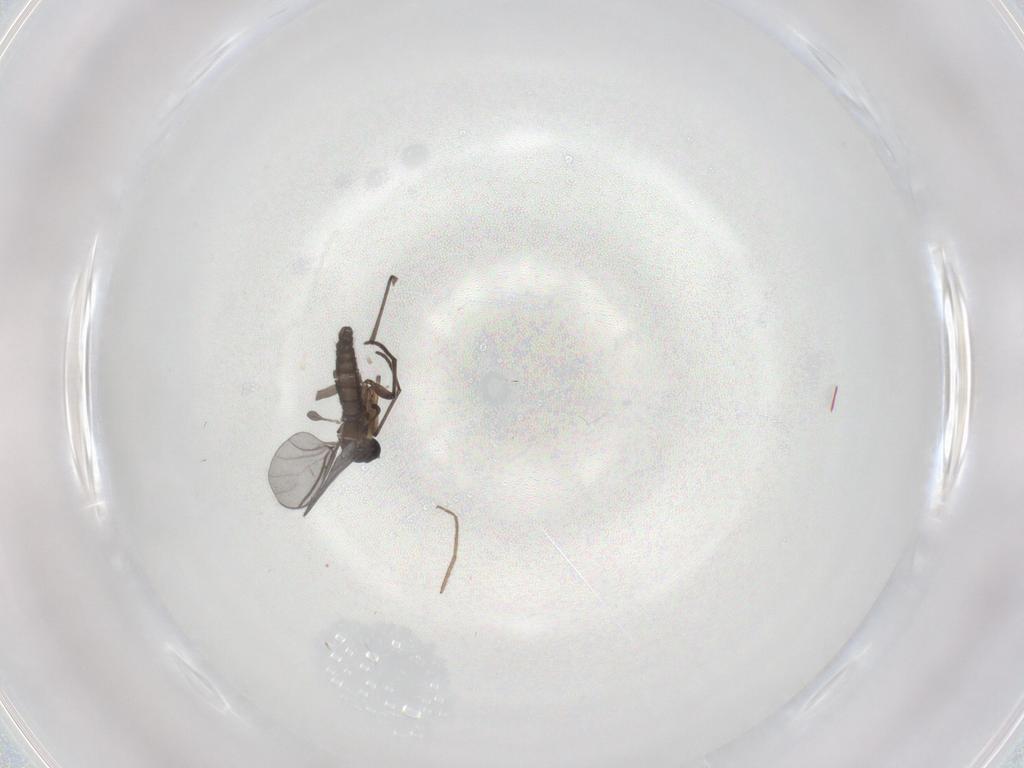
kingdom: Animalia
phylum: Arthropoda
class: Insecta
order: Diptera
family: Chironomidae
